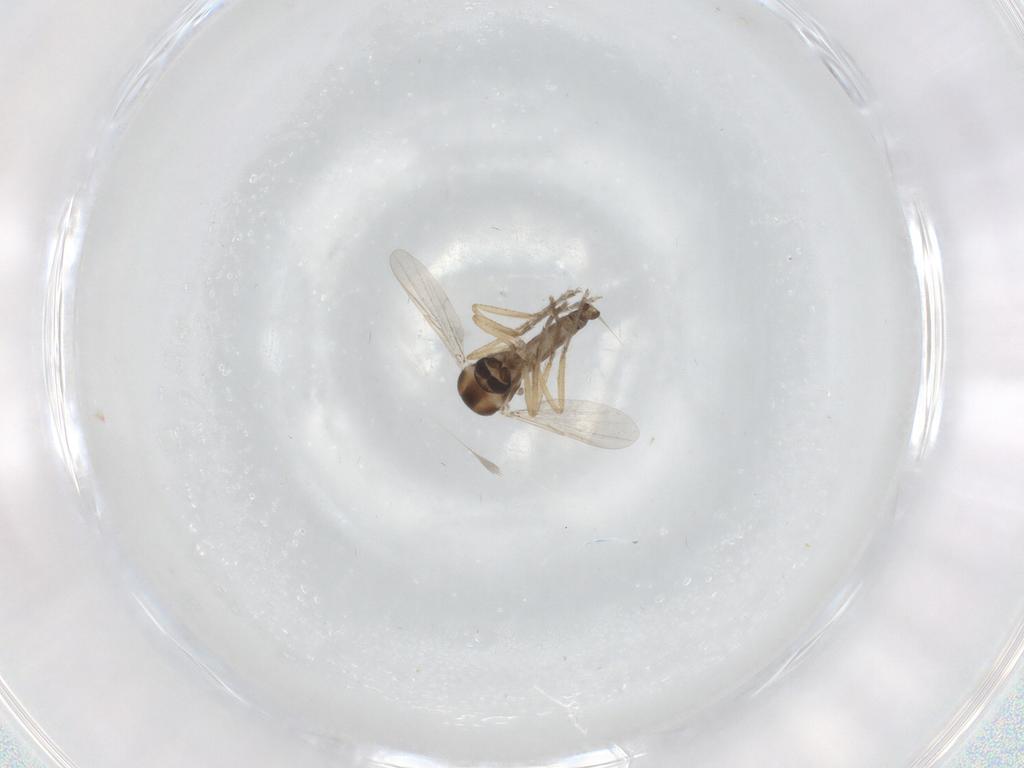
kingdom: Animalia
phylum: Arthropoda
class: Insecta
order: Diptera
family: Ceratopogonidae
